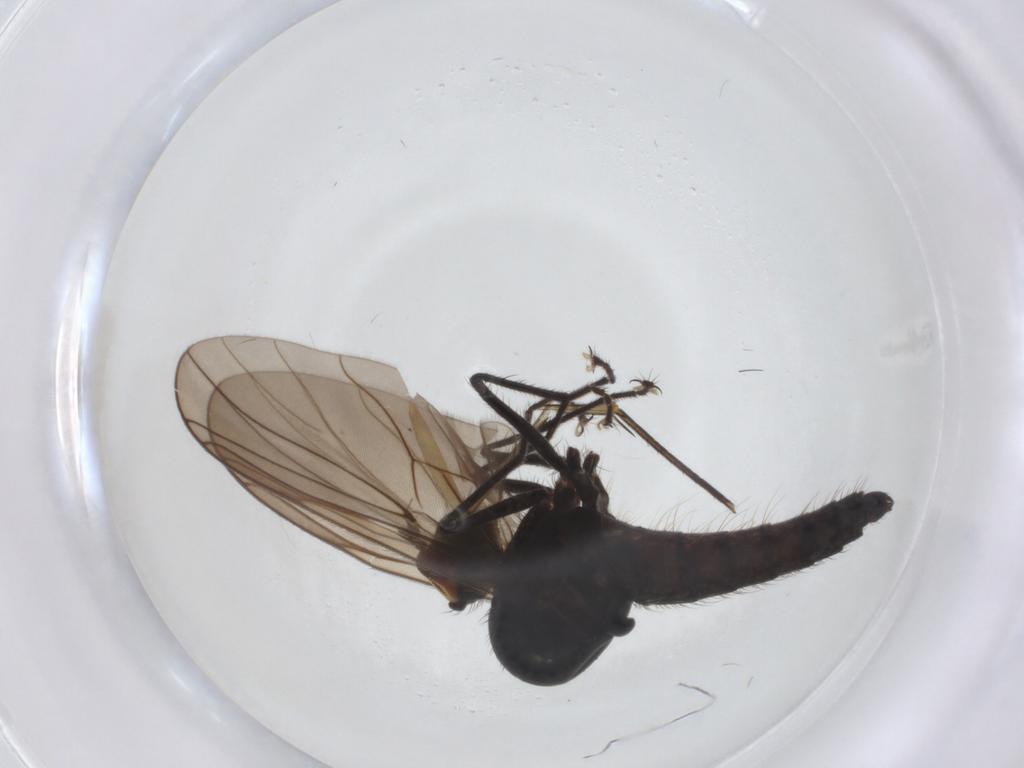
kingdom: Animalia
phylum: Arthropoda
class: Insecta
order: Diptera
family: Hybotidae
